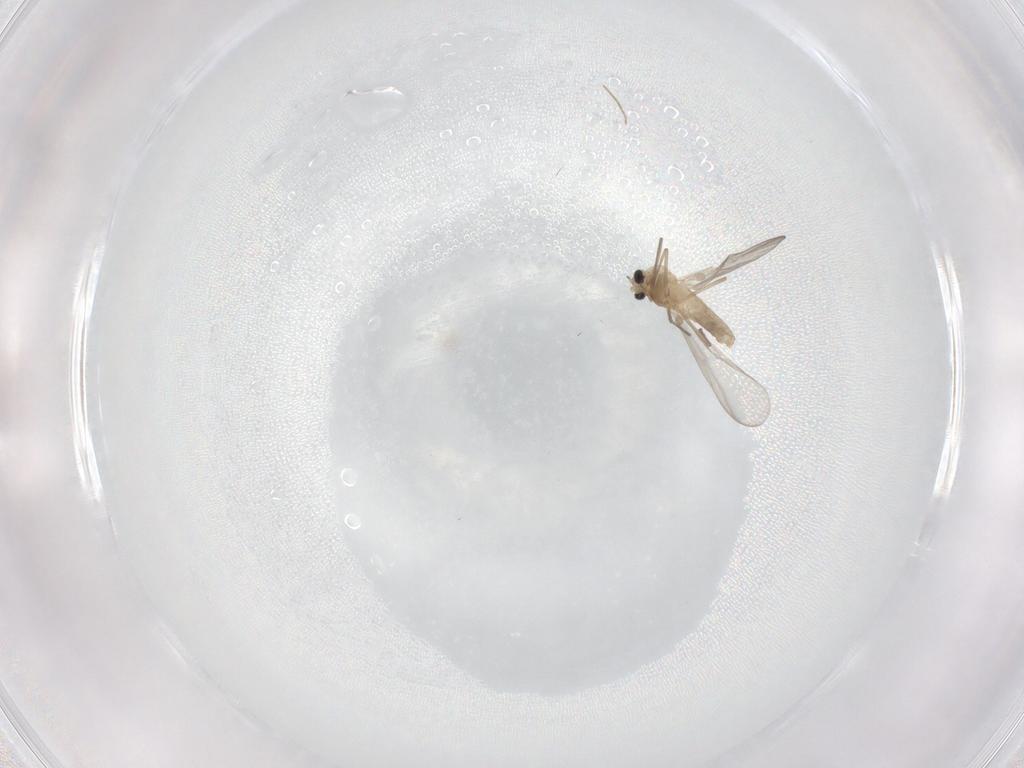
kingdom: Animalia
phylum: Arthropoda
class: Insecta
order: Diptera
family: Chironomidae
